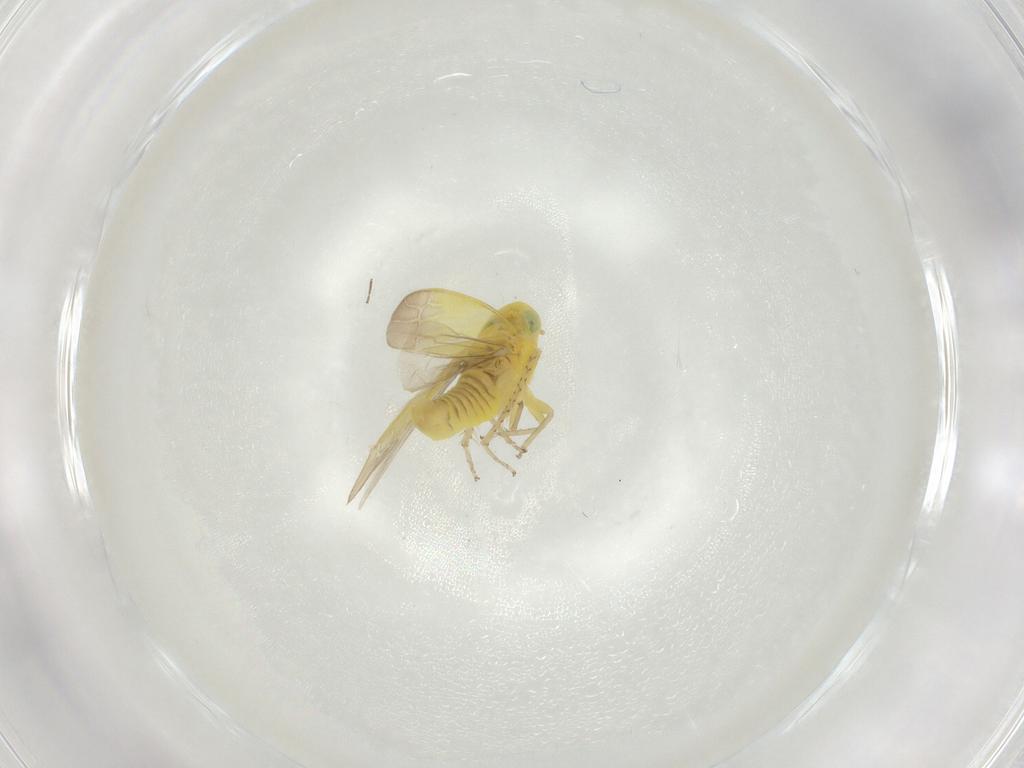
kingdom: Animalia
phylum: Arthropoda
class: Insecta
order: Hemiptera
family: Cicadellidae
